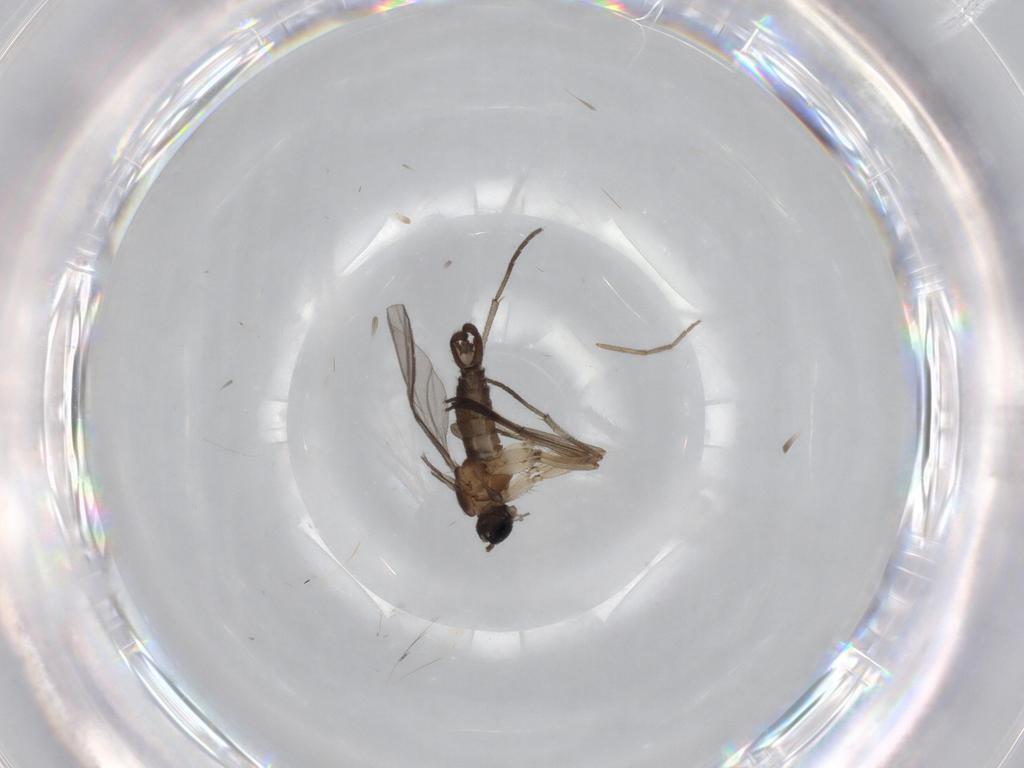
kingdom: Animalia
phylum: Arthropoda
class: Insecta
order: Diptera
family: Sciaridae
